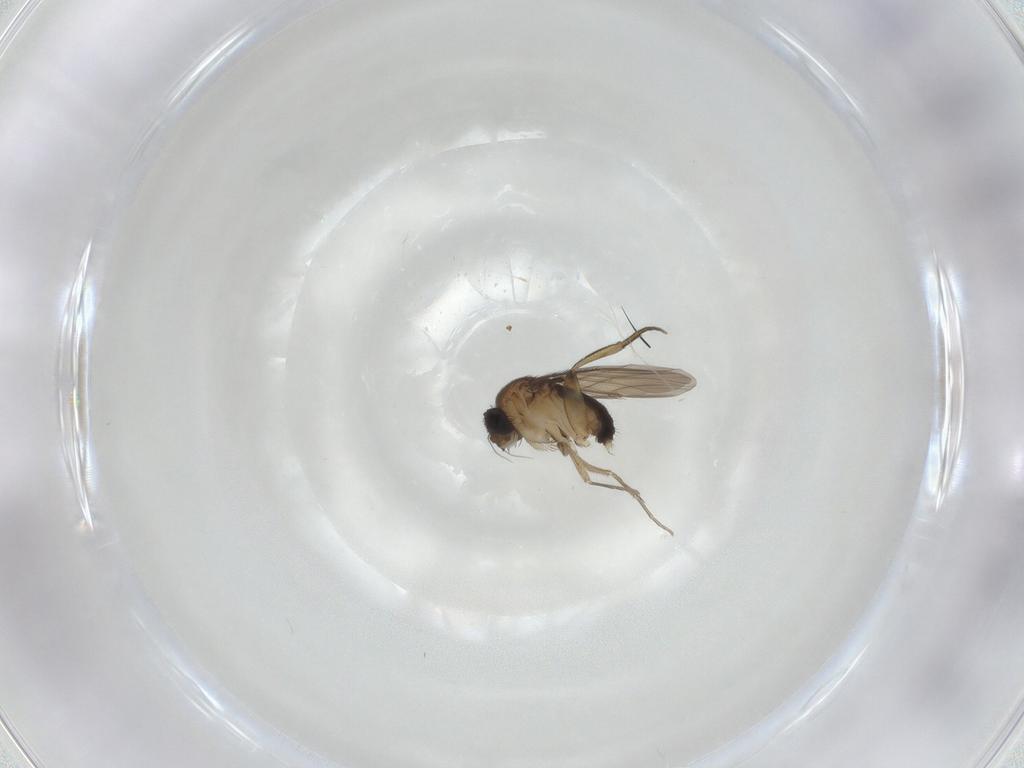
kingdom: Animalia
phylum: Arthropoda
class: Insecta
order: Diptera
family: Phoridae
